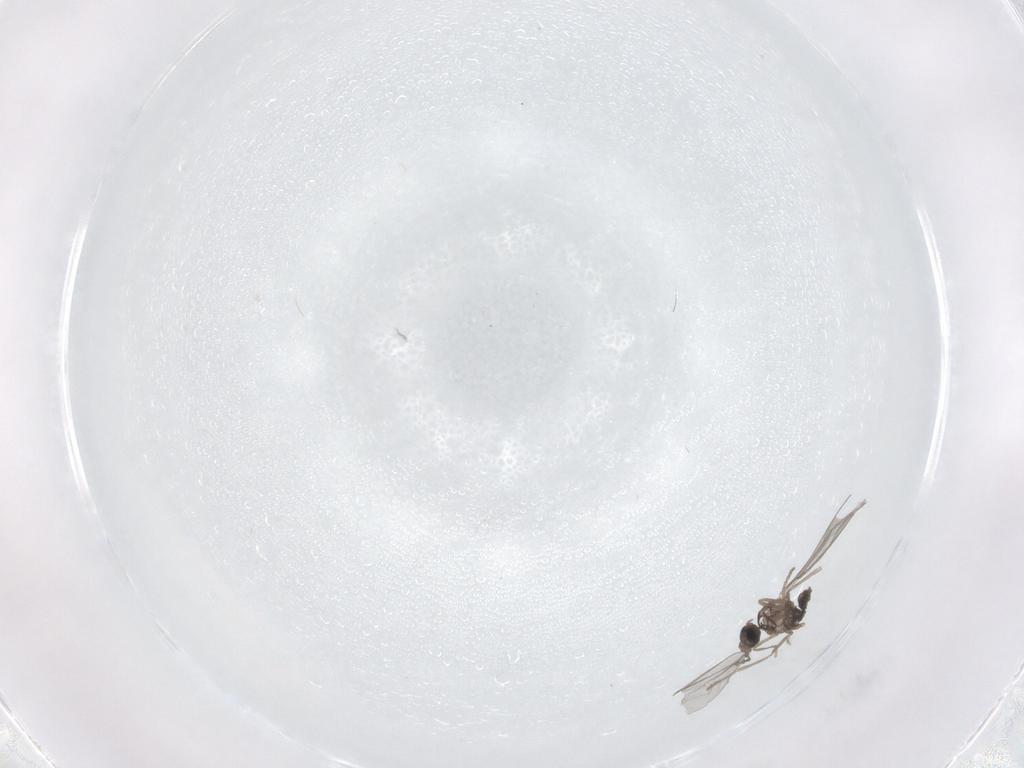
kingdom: Animalia
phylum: Arthropoda
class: Insecta
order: Diptera
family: Cecidomyiidae
